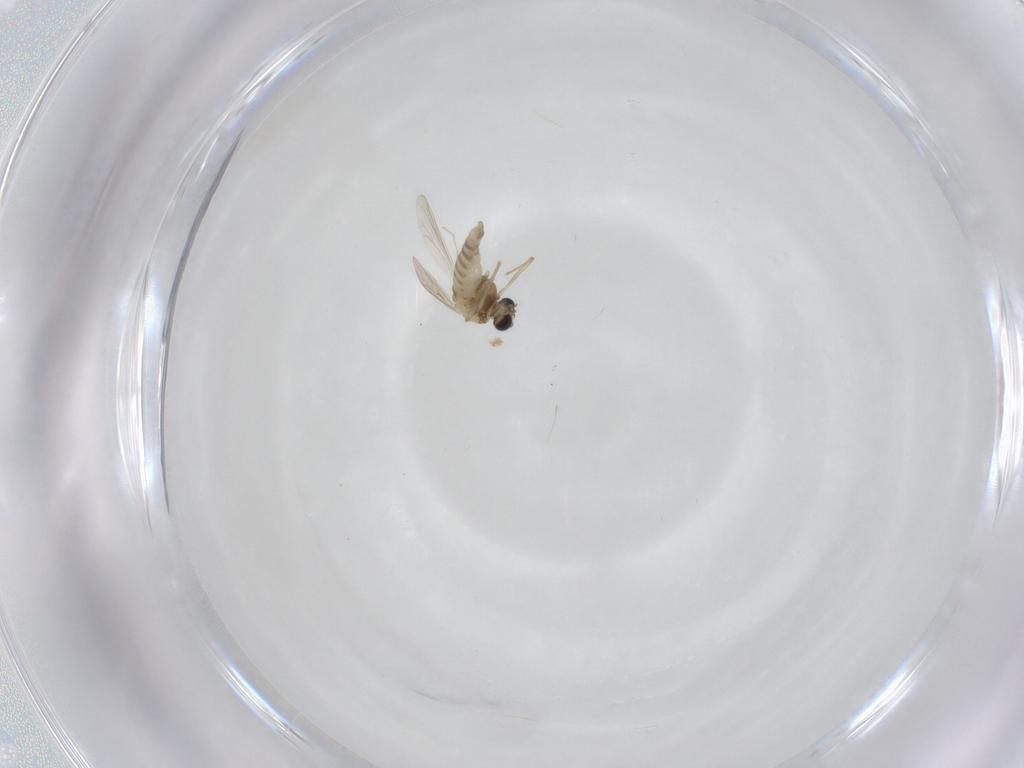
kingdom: Animalia
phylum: Arthropoda
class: Insecta
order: Diptera
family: Chironomidae
